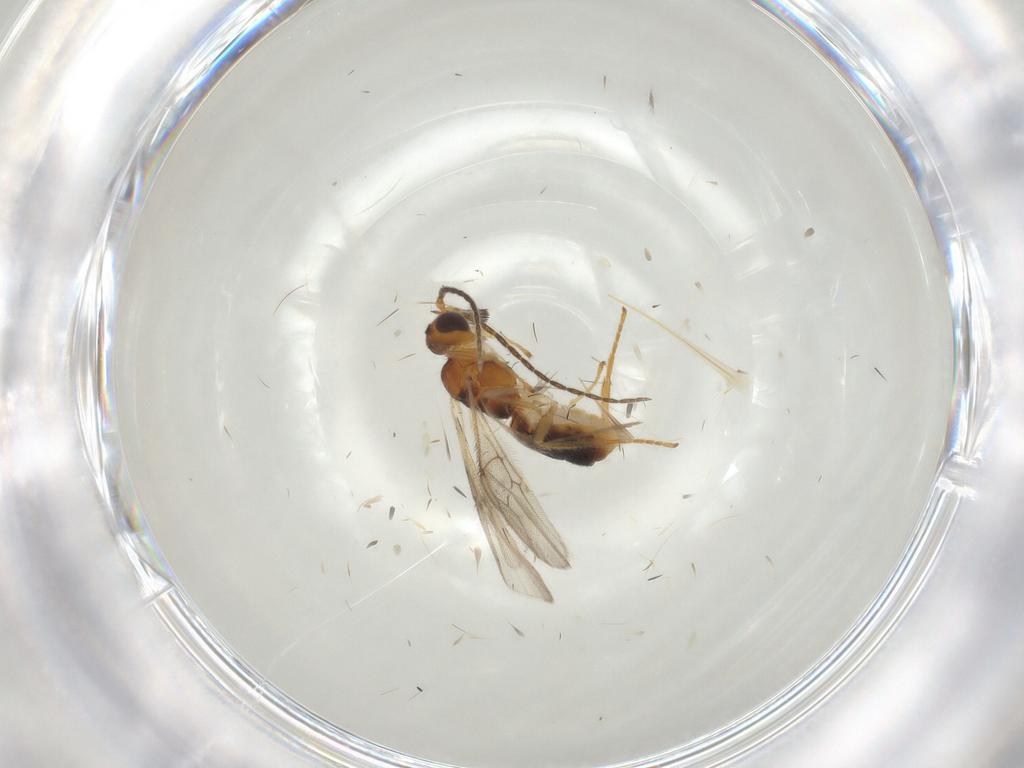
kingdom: Animalia
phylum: Arthropoda
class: Insecta
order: Hymenoptera
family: Braconidae
